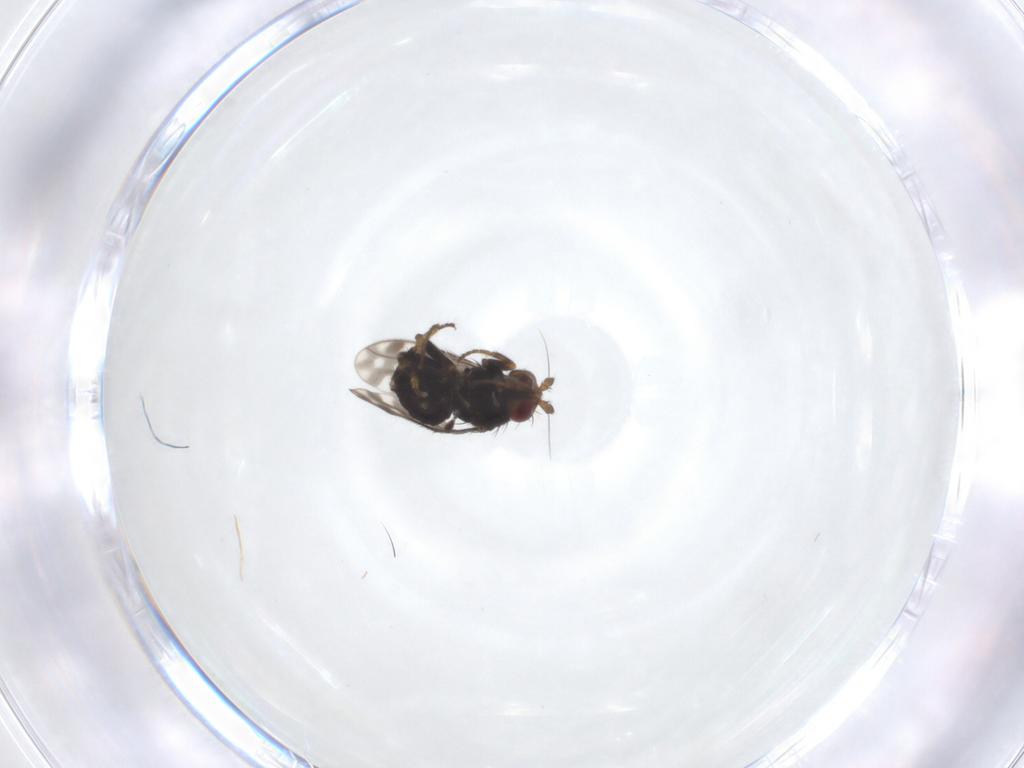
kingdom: Animalia
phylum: Arthropoda
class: Insecta
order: Diptera
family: Sphaeroceridae
